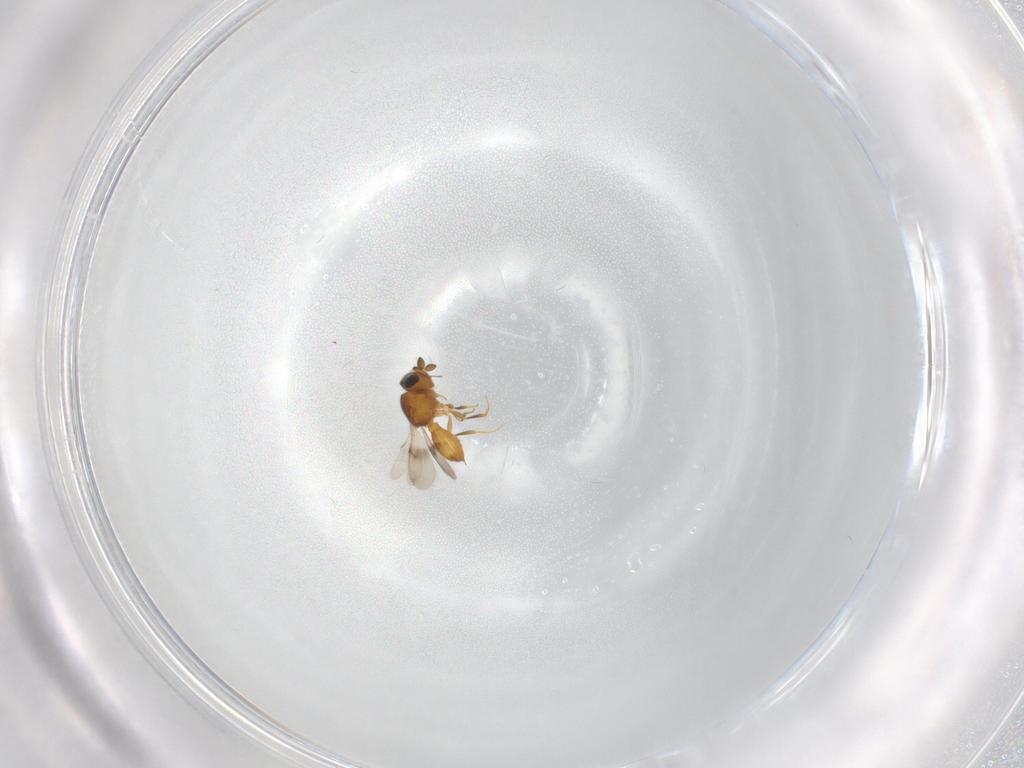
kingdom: Animalia
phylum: Arthropoda
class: Insecta
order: Hymenoptera
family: Scelionidae
